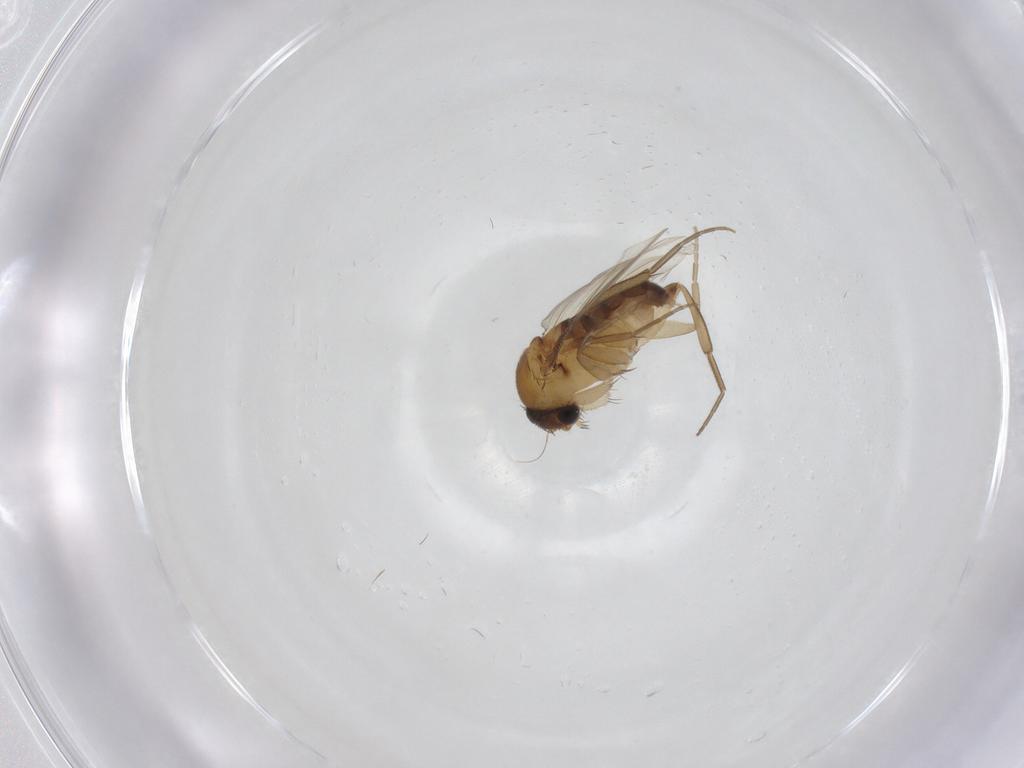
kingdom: Animalia
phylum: Arthropoda
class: Insecta
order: Diptera
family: Phoridae
